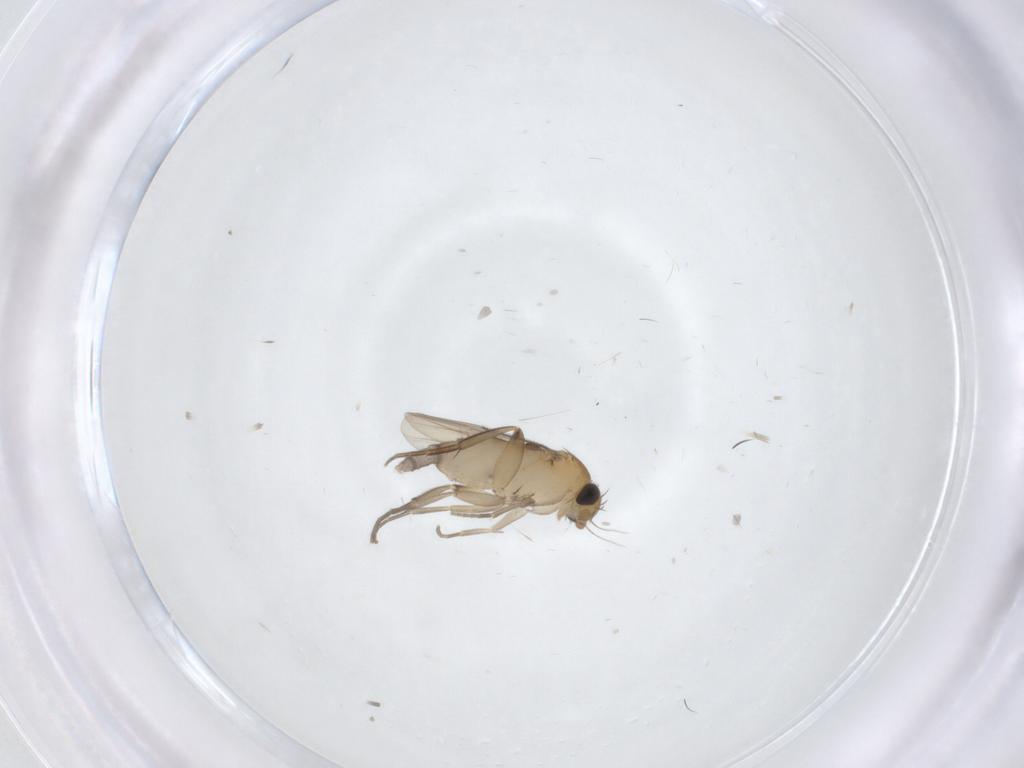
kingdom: Animalia
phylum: Arthropoda
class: Insecta
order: Diptera
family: Phoridae
